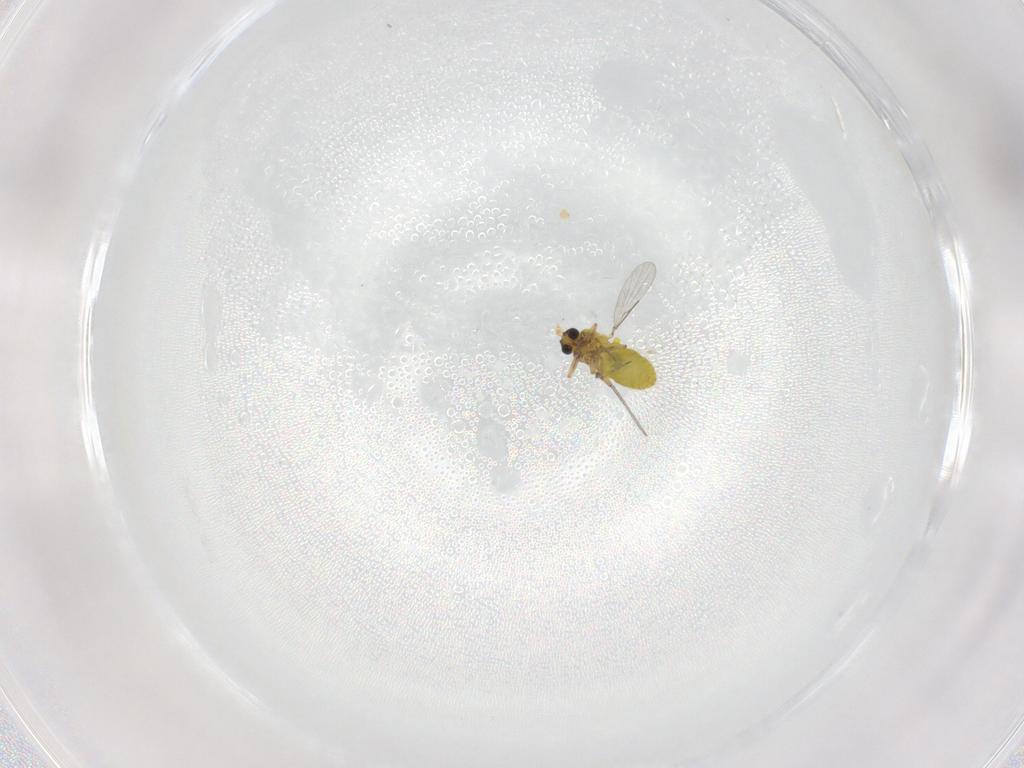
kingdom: Animalia
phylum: Arthropoda
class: Insecta
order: Diptera
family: Ceratopogonidae
